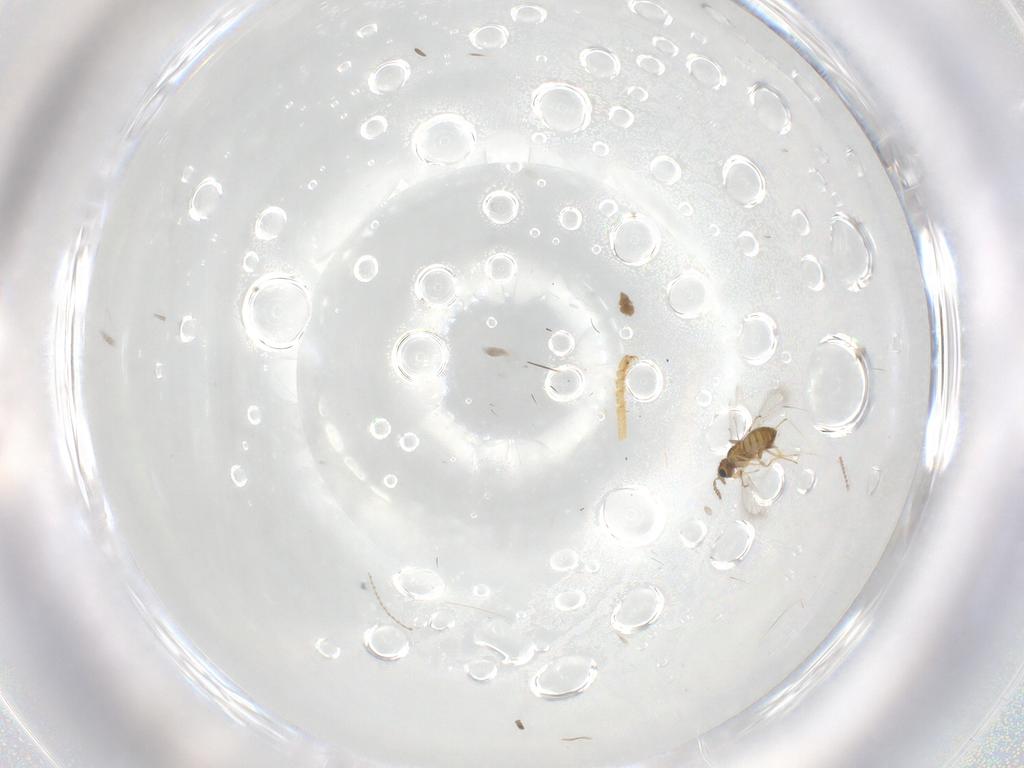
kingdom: Animalia
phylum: Arthropoda
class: Insecta
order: Hymenoptera
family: Trichogrammatidae
